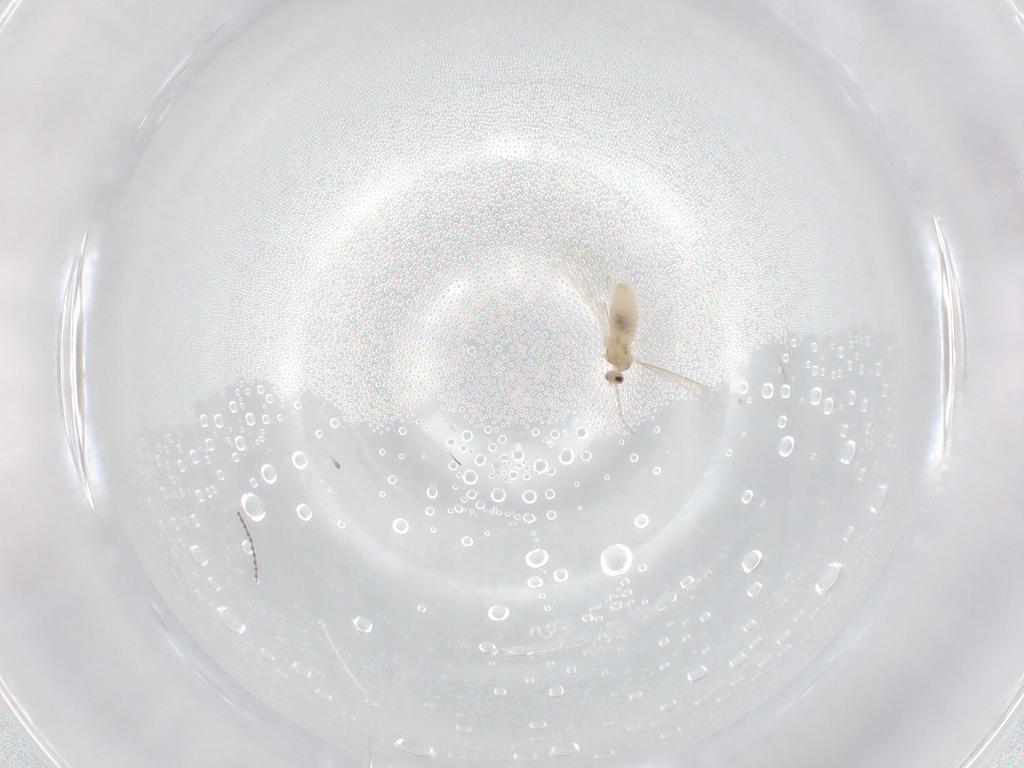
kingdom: Animalia
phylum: Arthropoda
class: Insecta
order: Diptera
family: Cecidomyiidae
